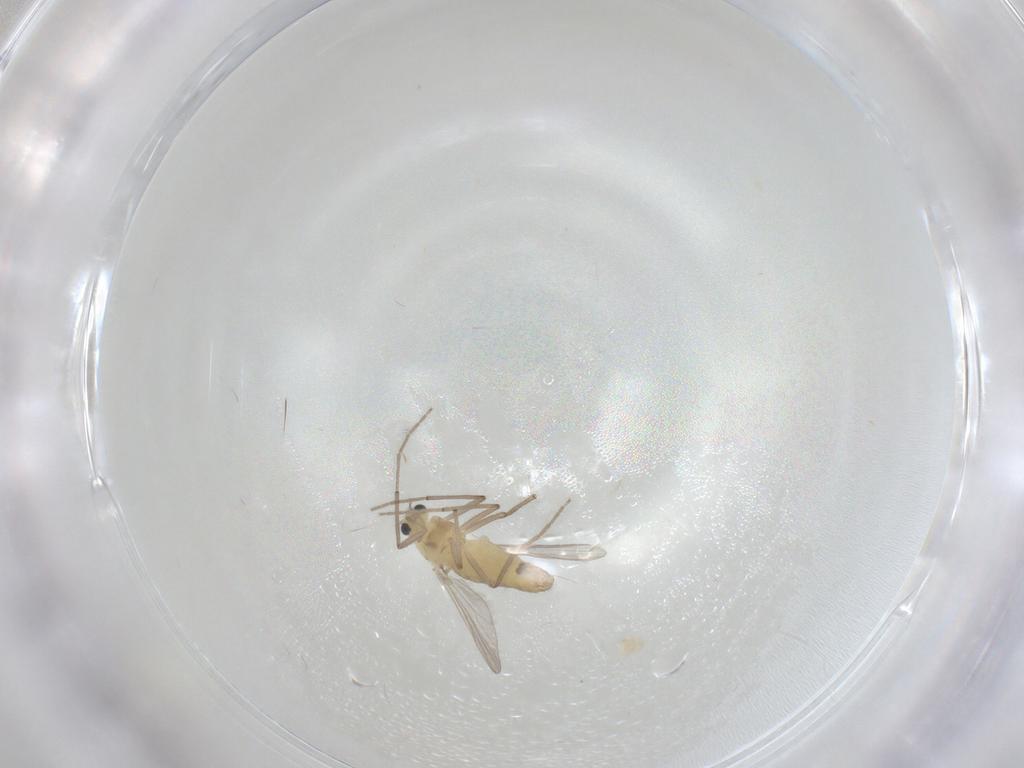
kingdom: Animalia
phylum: Arthropoda
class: Insecta
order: Diptera
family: Chironomidae
